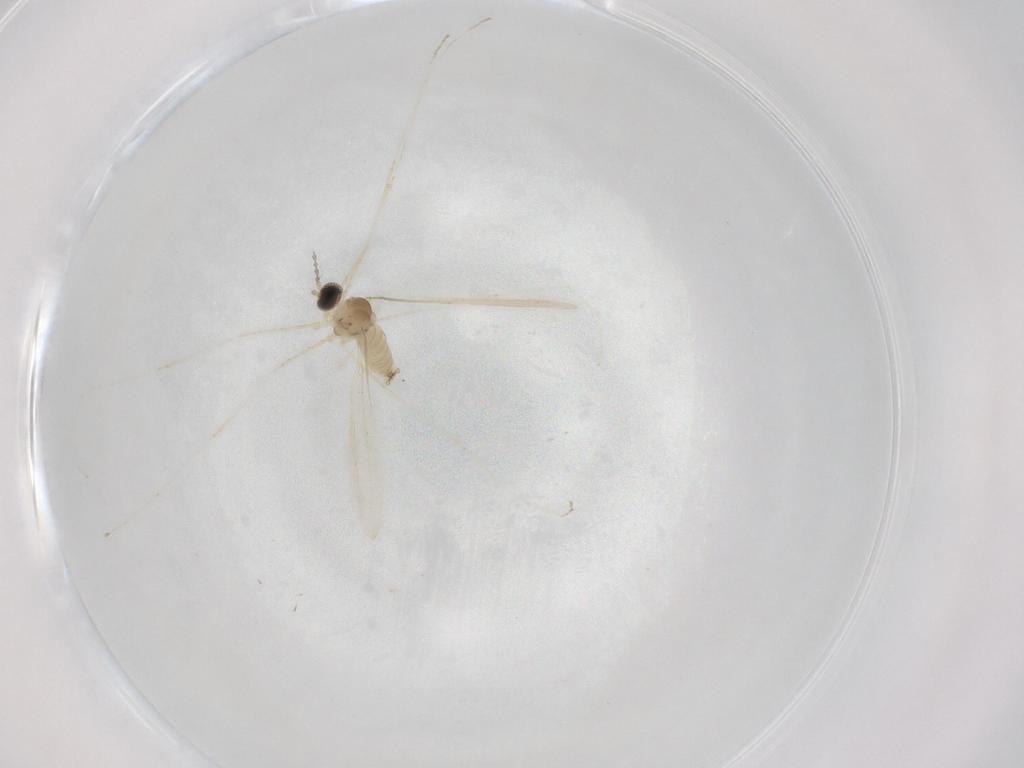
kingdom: Animalia
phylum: Arthropoda
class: Insecta
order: Diptera
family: Cecidomyiidae
